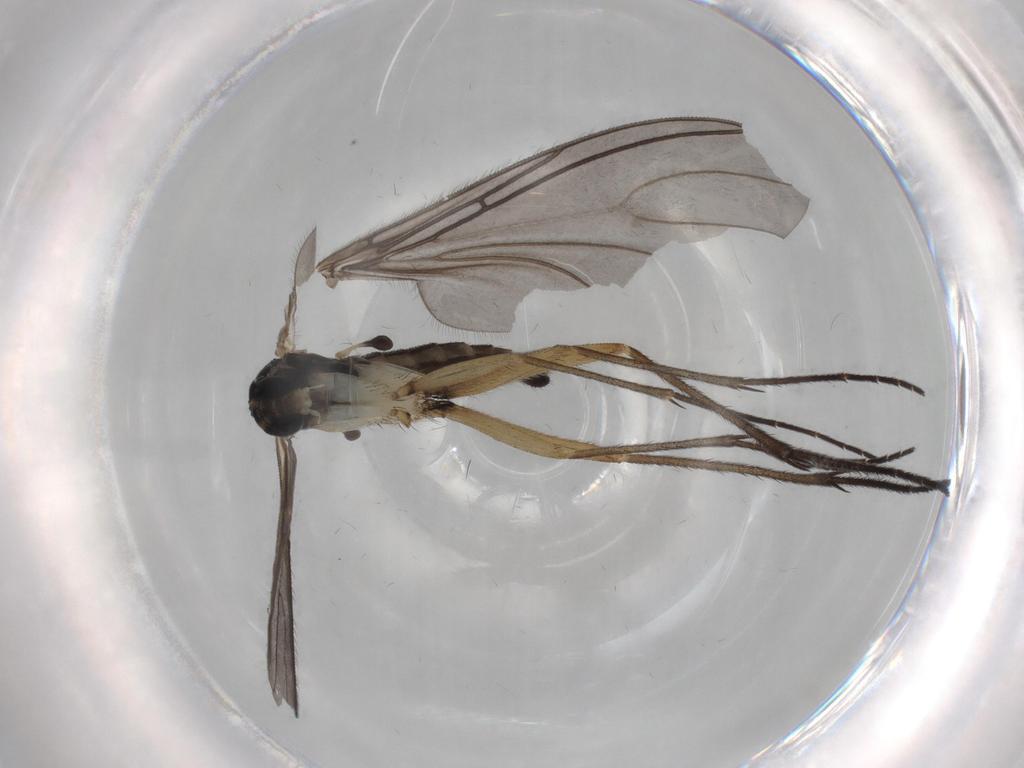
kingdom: Animalia
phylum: Arthropoda
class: Insecta
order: Diptera
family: Sciaridae
